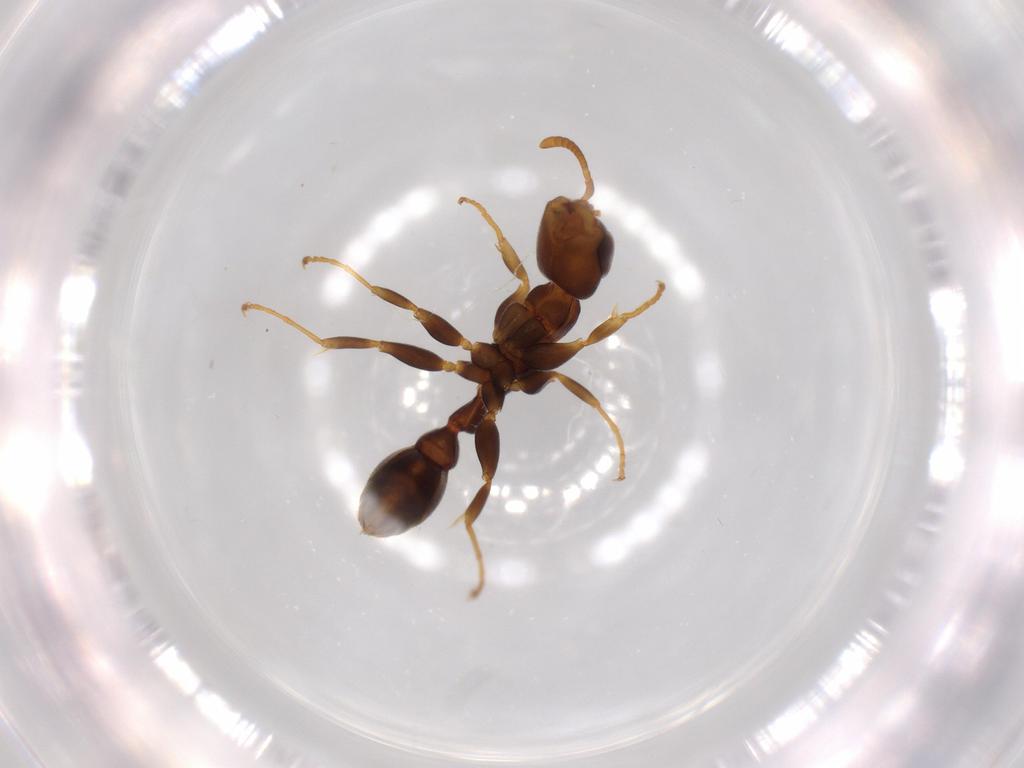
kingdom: Animalia
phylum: Arthropoda
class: Insecta
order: Hymenoptera
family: Formicidae
